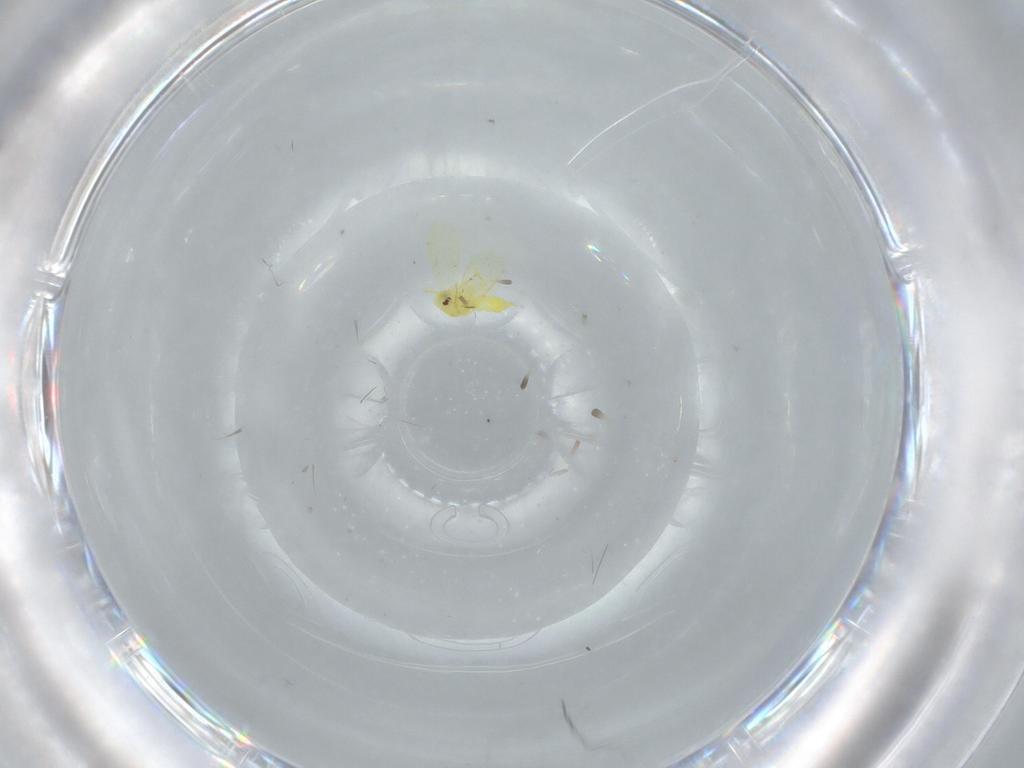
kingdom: Animalia
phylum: Arthropoda
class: Insecta
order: Hemiptera
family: Aleyrodidae
